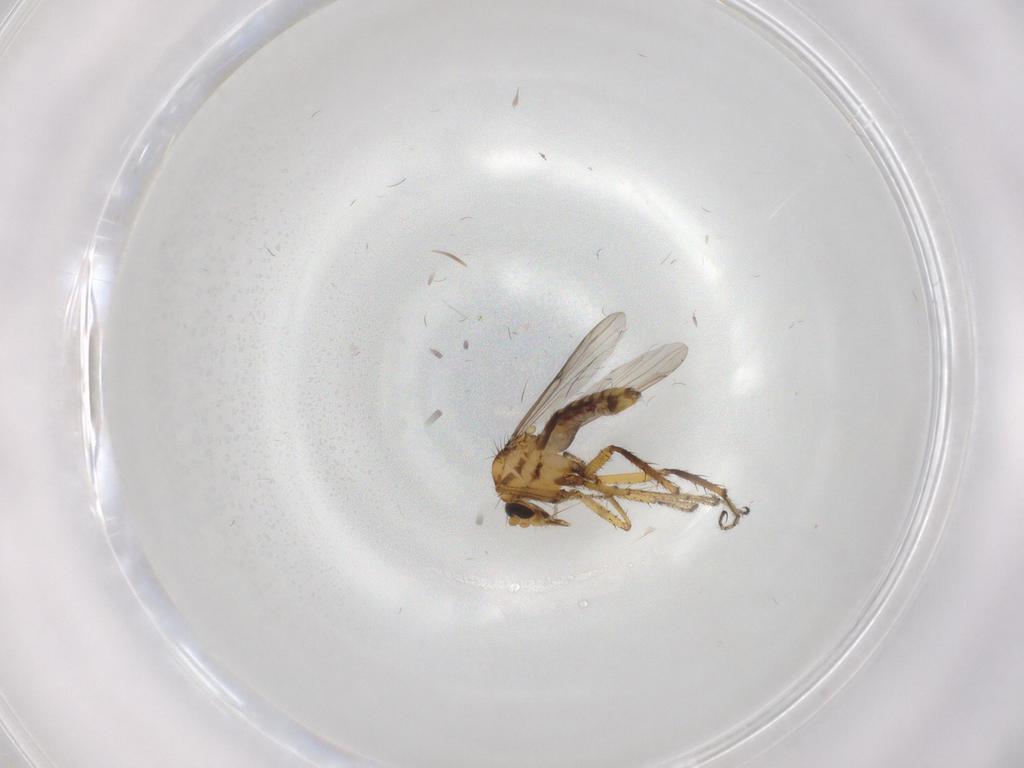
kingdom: Animalia
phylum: Arthropoda
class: Insecta
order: Diptera
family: Ceratopogonidae
